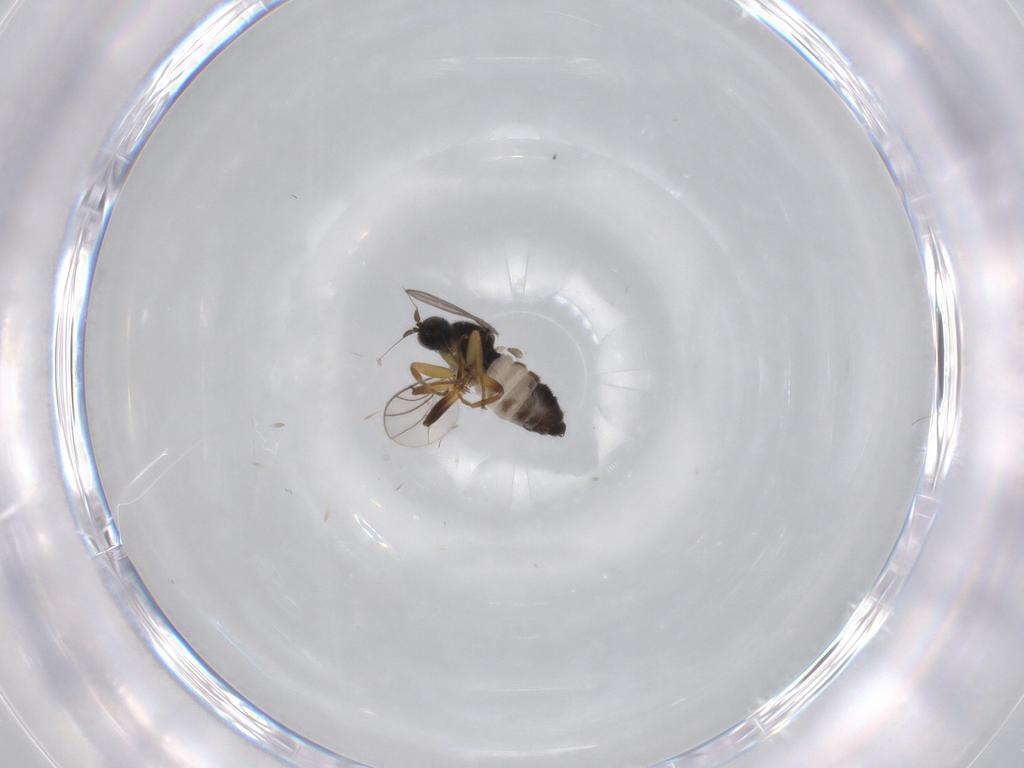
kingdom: Animalia
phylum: Arthropoda
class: Insecta
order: Diptera
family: Hybotidae
